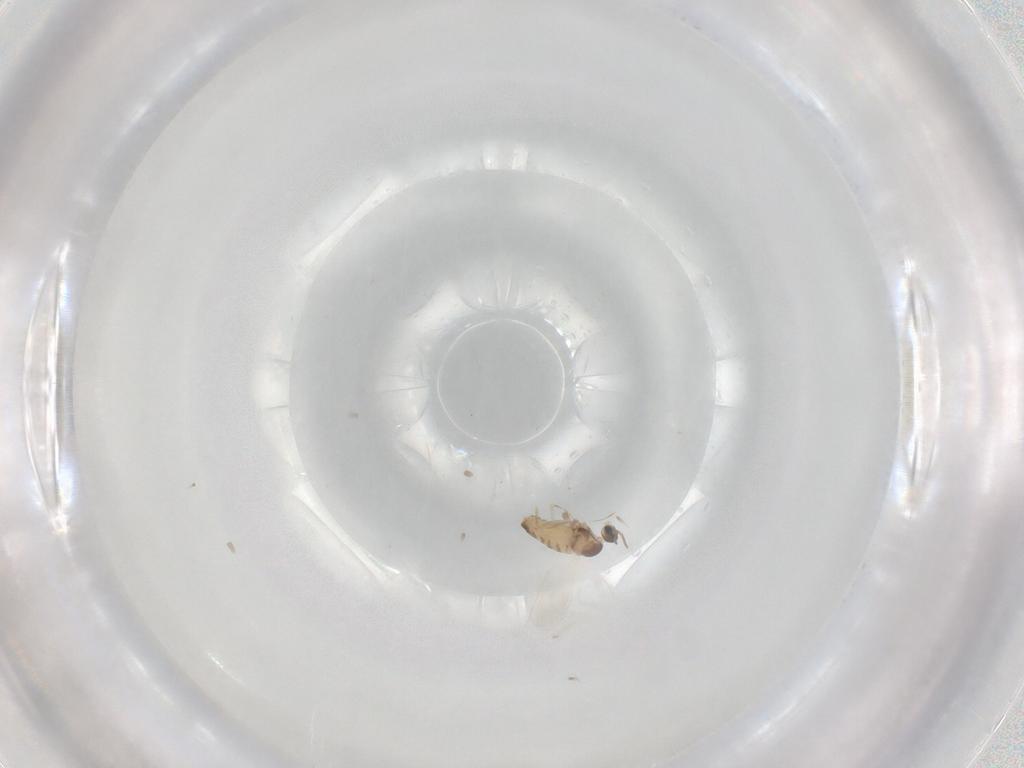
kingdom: Animalia
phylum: Arthropoda
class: Insecta
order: Diptera
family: Cecidomyiidae
